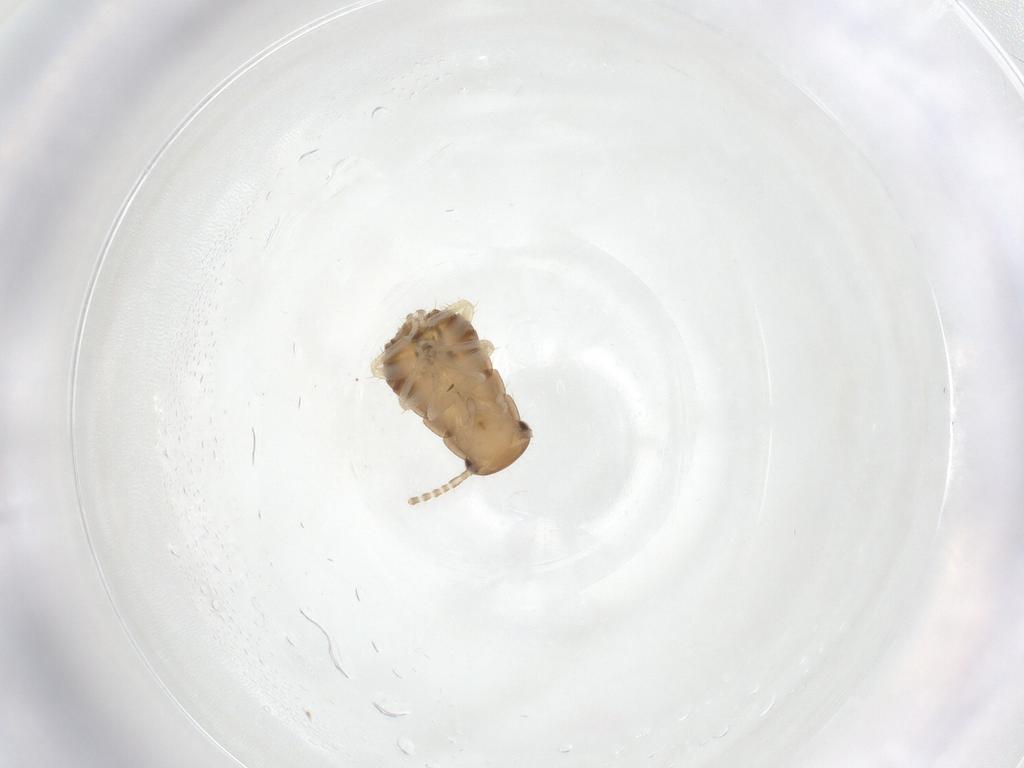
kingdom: Animalia
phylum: Arthropoda
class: Insecta
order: Blattodea
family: Ectobiidae
